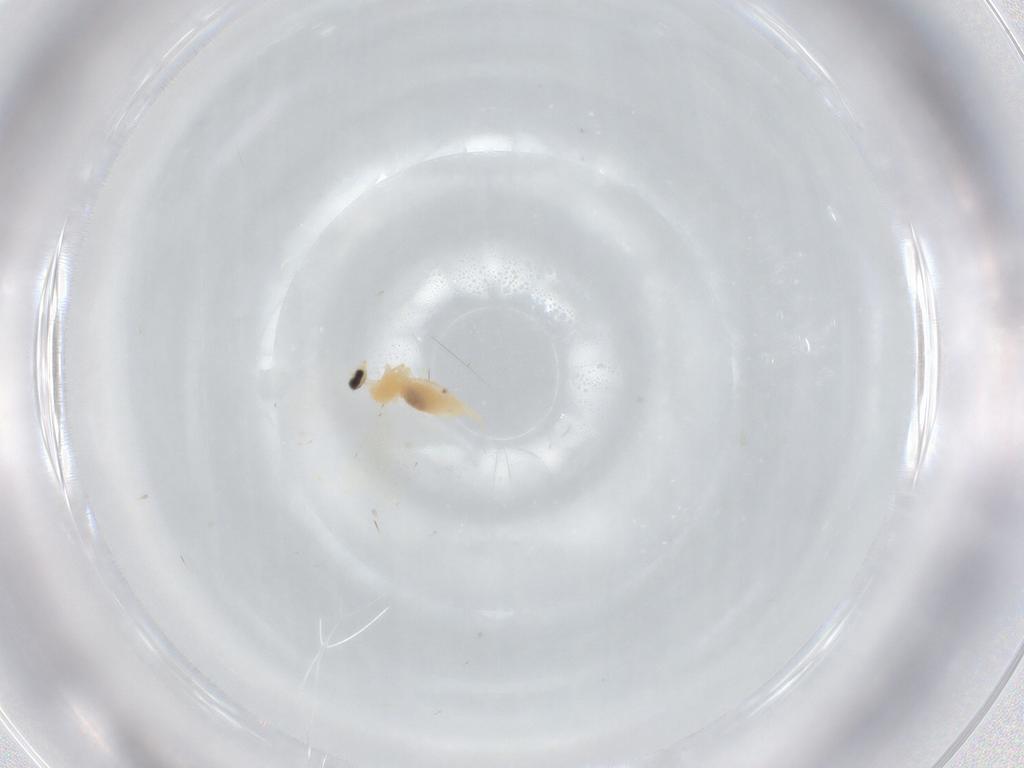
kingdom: Animalia
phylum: Arthropoda
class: Insecta
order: Diptera
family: Cecidomyiidae
